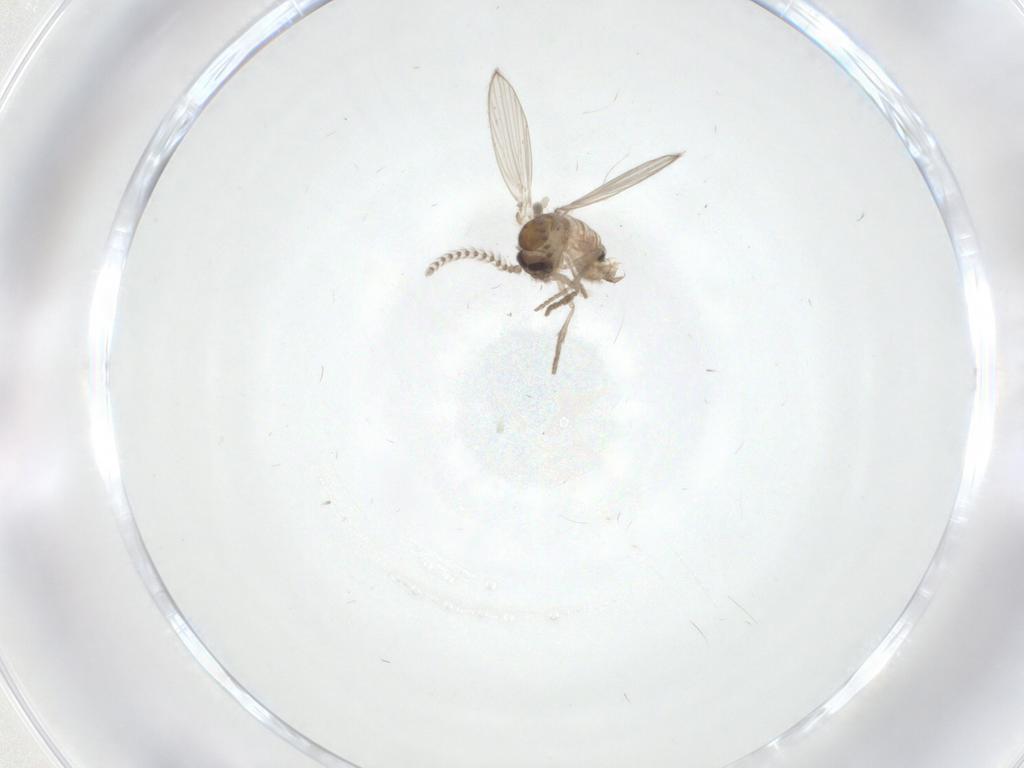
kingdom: Animalia
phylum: Arthropoda
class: Insecta
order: Diptera
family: Psychodidae
